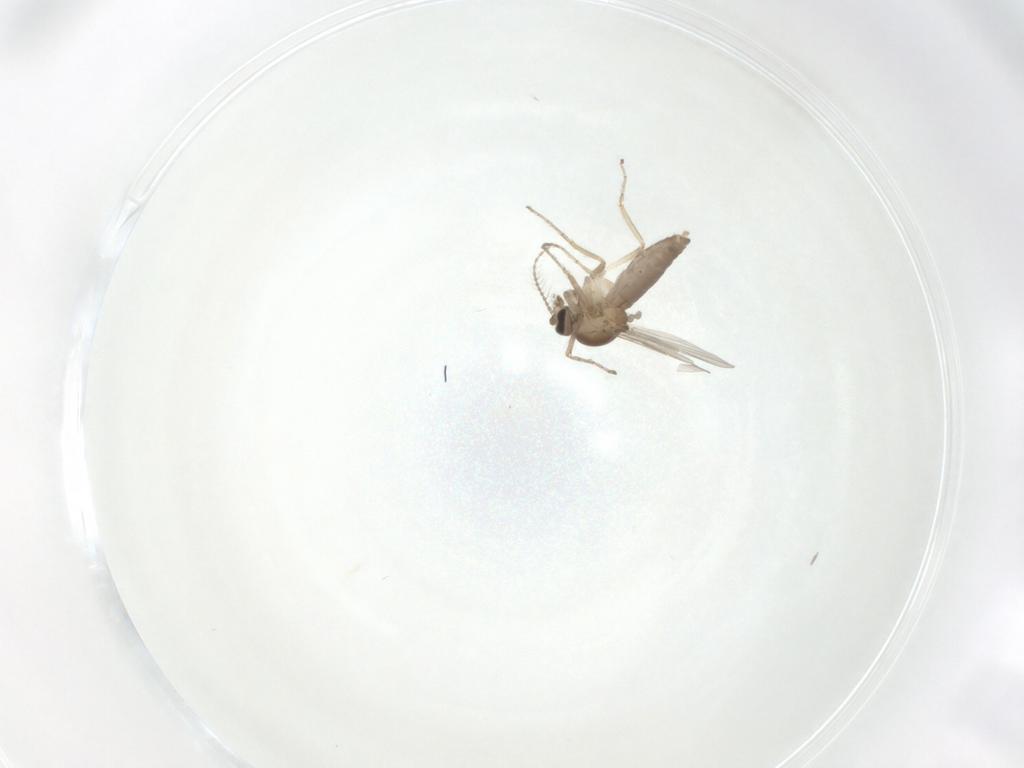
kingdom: Animalia
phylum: Arthropoda
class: Insecta
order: Diptera
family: Ceratopogonidae
